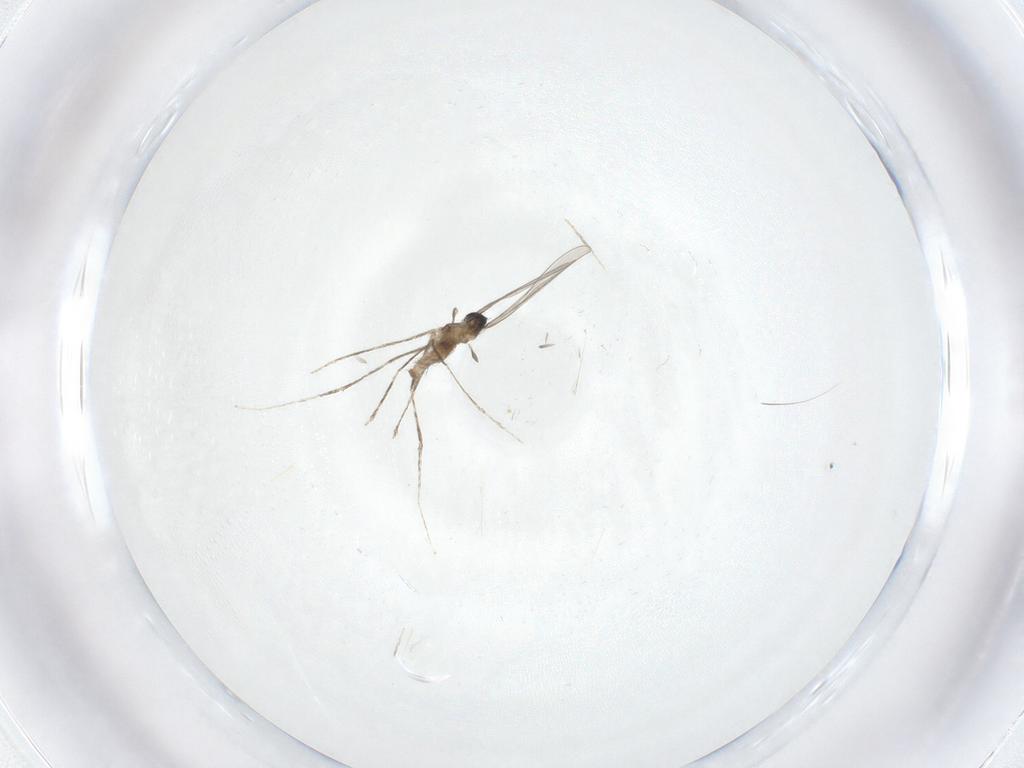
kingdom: Animalia
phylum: Arthropoda
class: Insecta
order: Diptera
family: Cecidomyiidae
